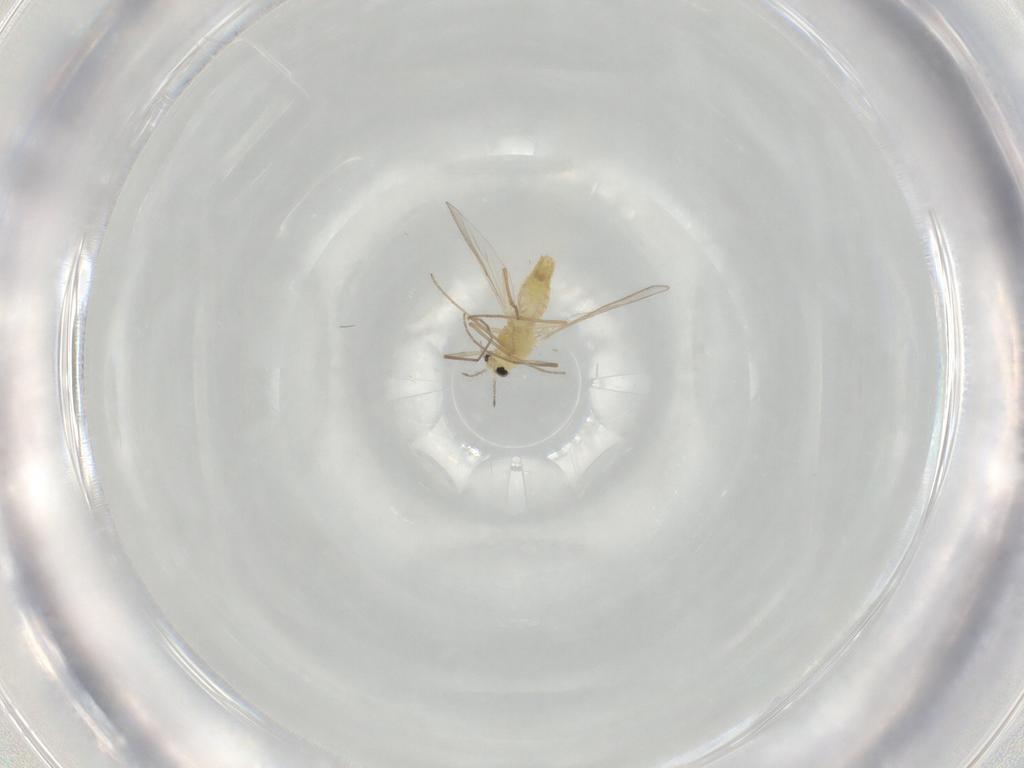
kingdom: Animalia
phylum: Arthropoda
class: Insecta
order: Diptera
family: Chironomidae
